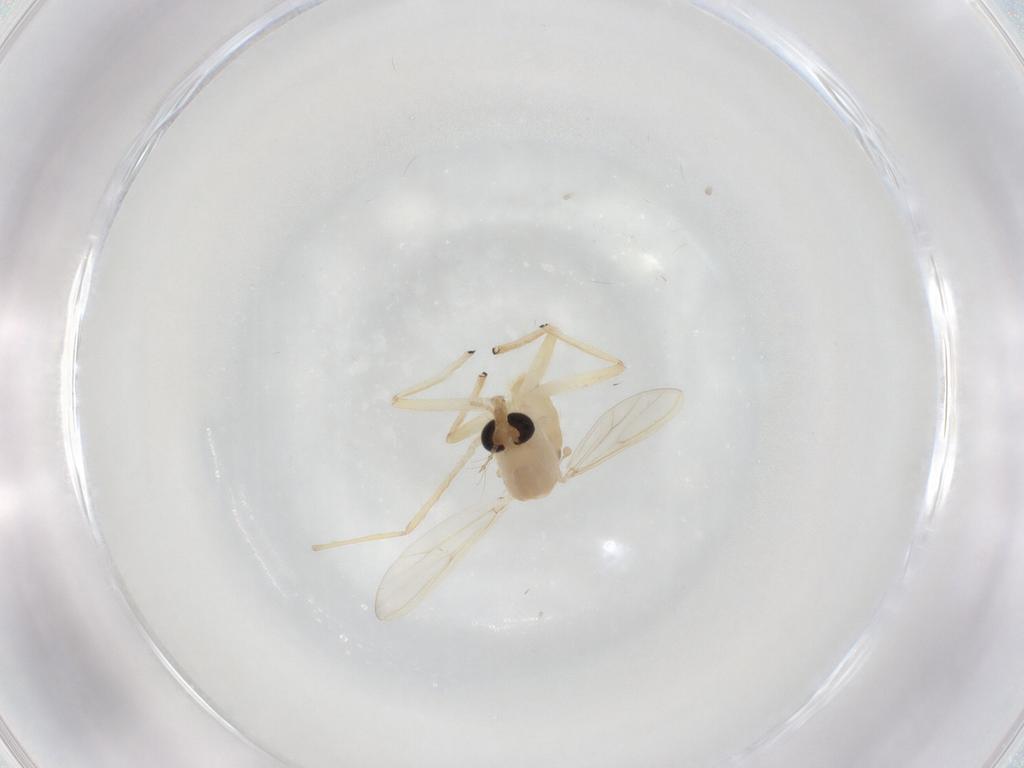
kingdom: Animalia
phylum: Arthropoda
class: Insecta
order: Diptera
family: Chironomidae
